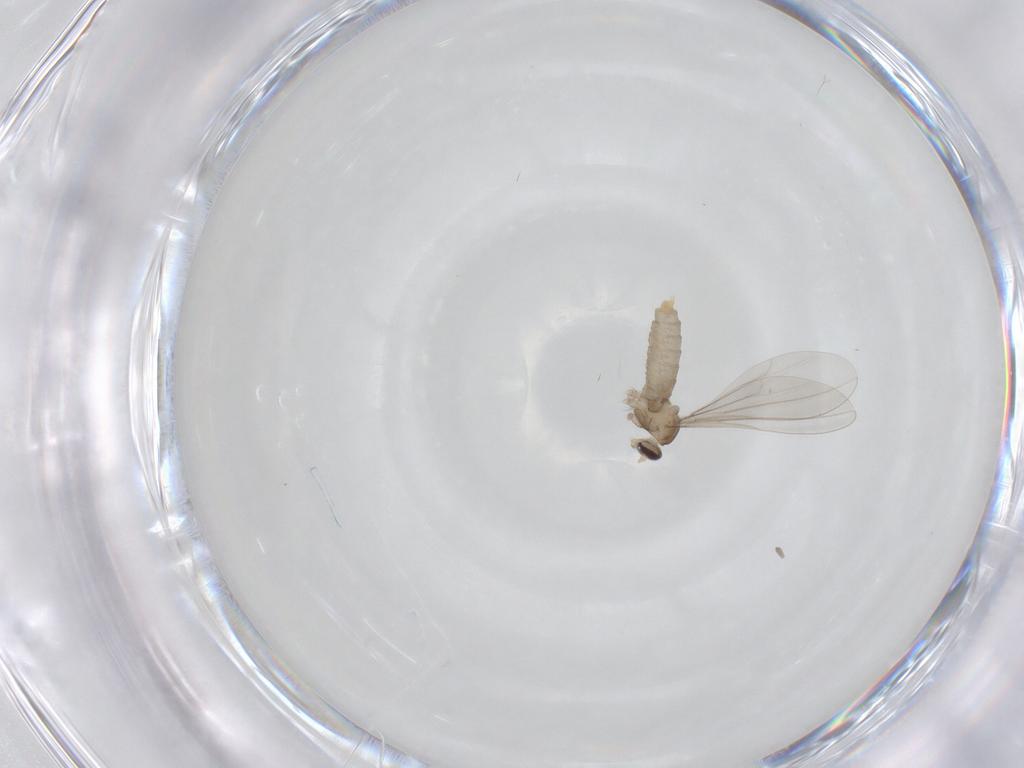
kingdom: Animalia
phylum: Arthropoda
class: Insecta
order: Diptera
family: Cecidomyiidae
